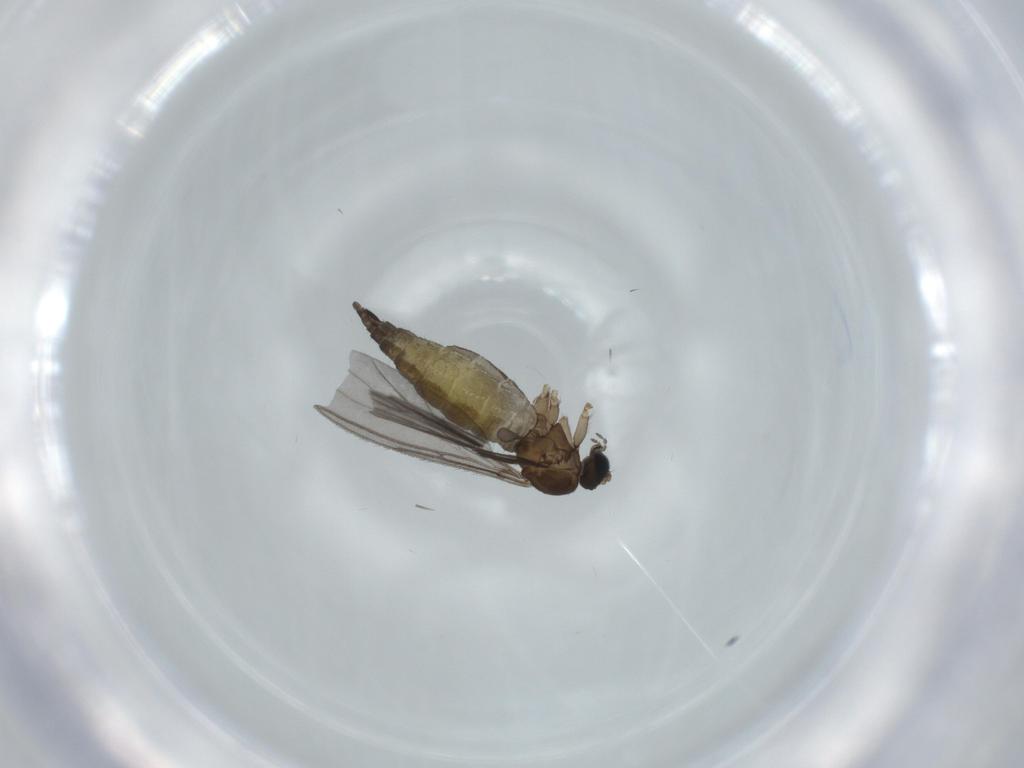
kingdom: Animalia
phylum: Arthropoda
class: Insecta
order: Diptera
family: Sciaridae
